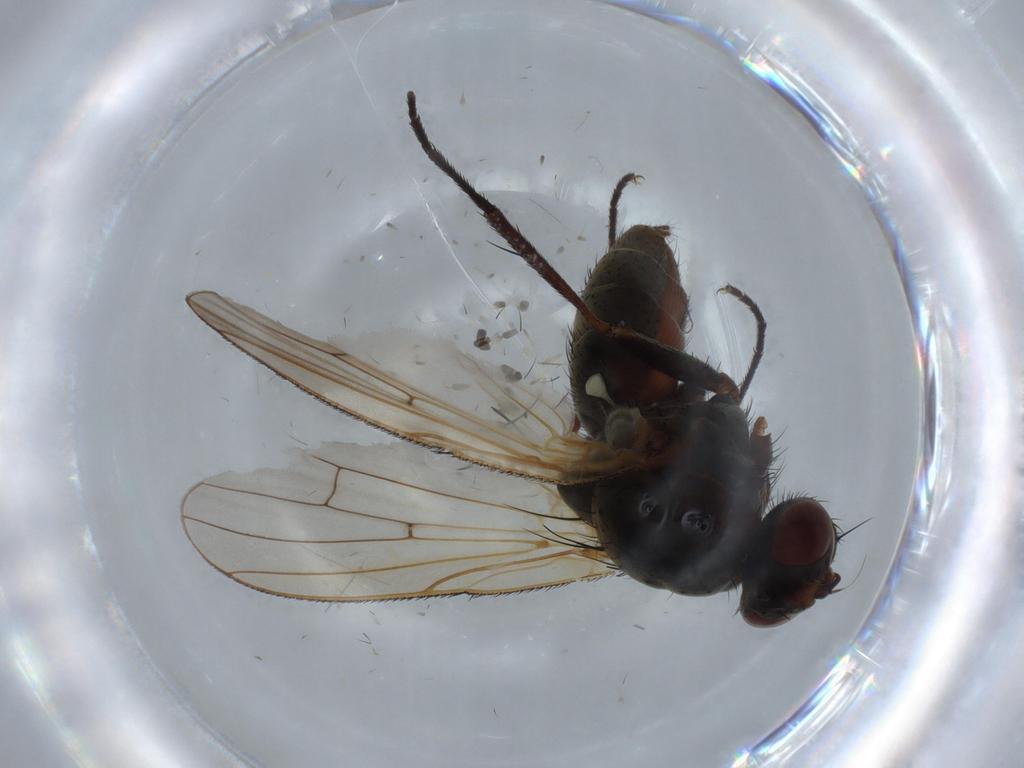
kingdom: Animalia
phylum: Arthropoda
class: Insecta
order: Diptera
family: Anthomyiidae
